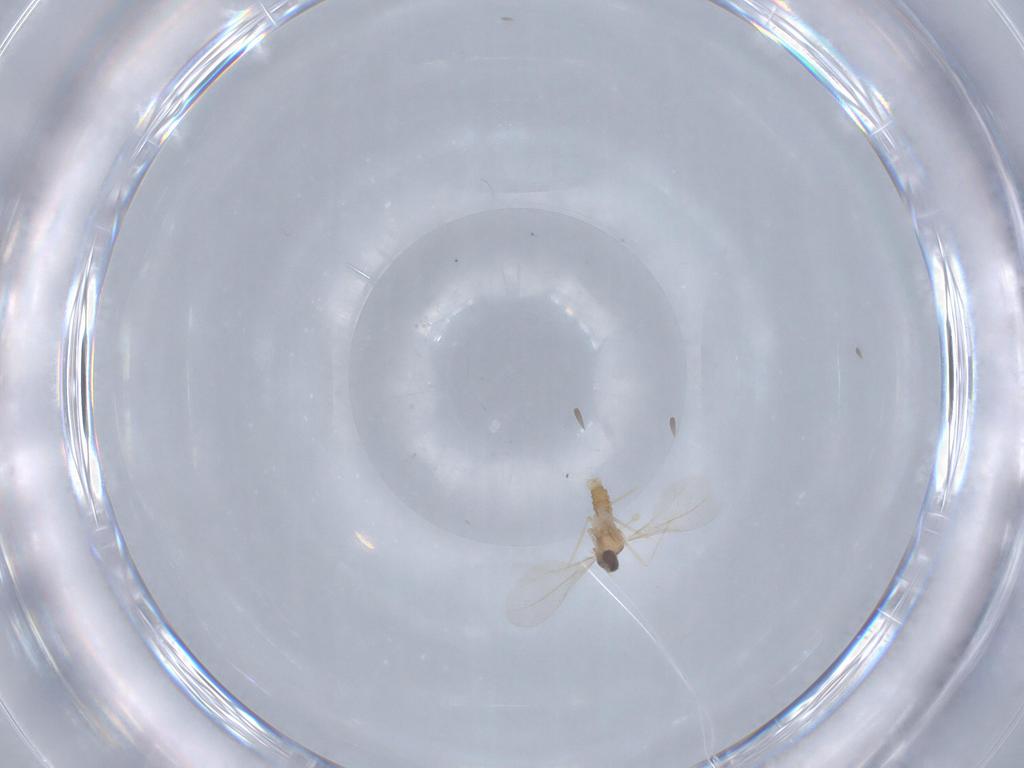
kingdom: Animalia
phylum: Arthropoda
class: Insecta
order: Diptera
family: Cecidomyiidae
